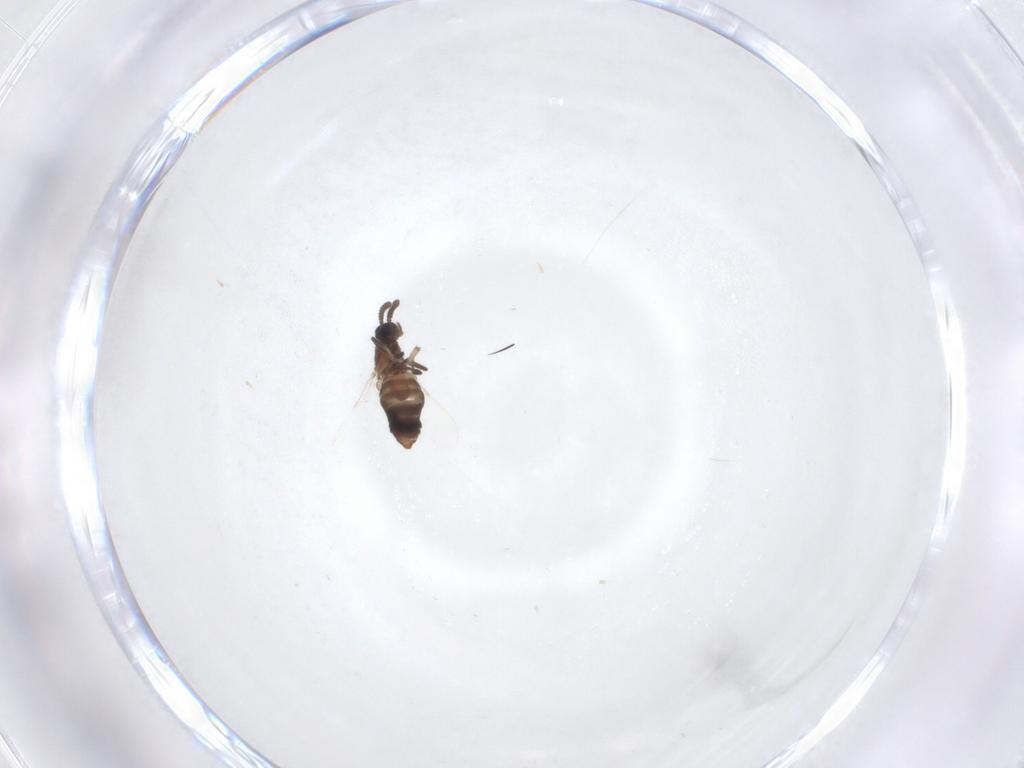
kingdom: Animalia
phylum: Arthropoda
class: Insecta
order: Diptera
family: Scatopsidae
